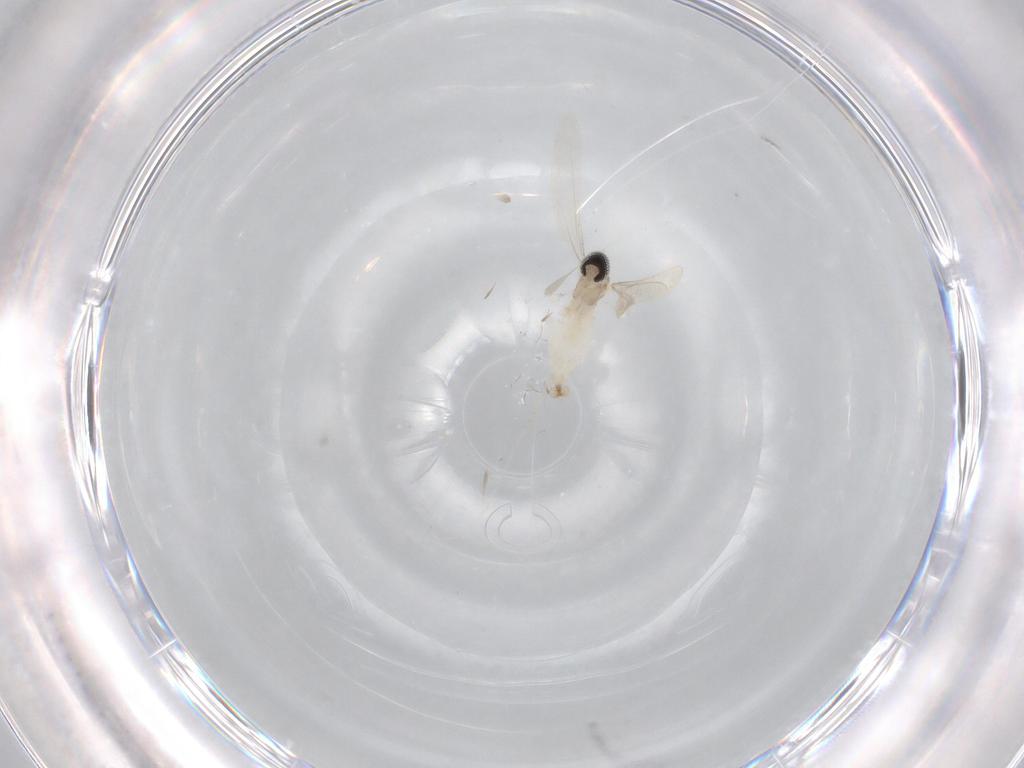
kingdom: Animalia
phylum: Arthropoda
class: Insecta
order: Diptera
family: Cecidomyiidae
